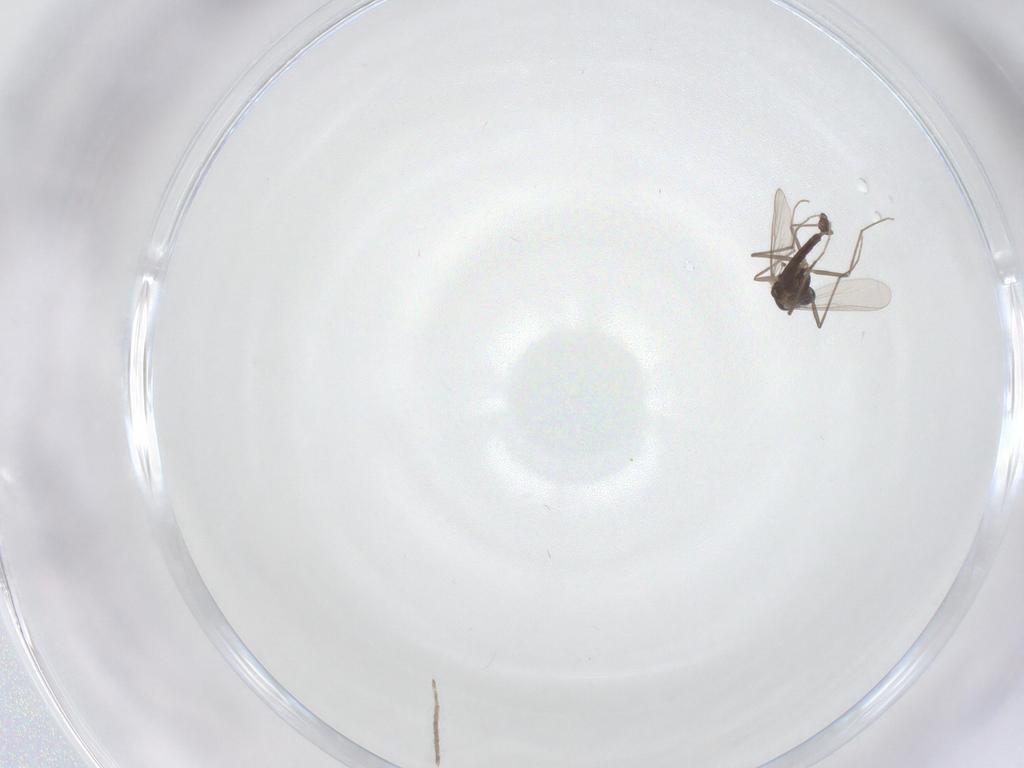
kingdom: Animalia
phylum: Arthropoda
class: Insecta
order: Diptera
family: Cecidomyiidae
